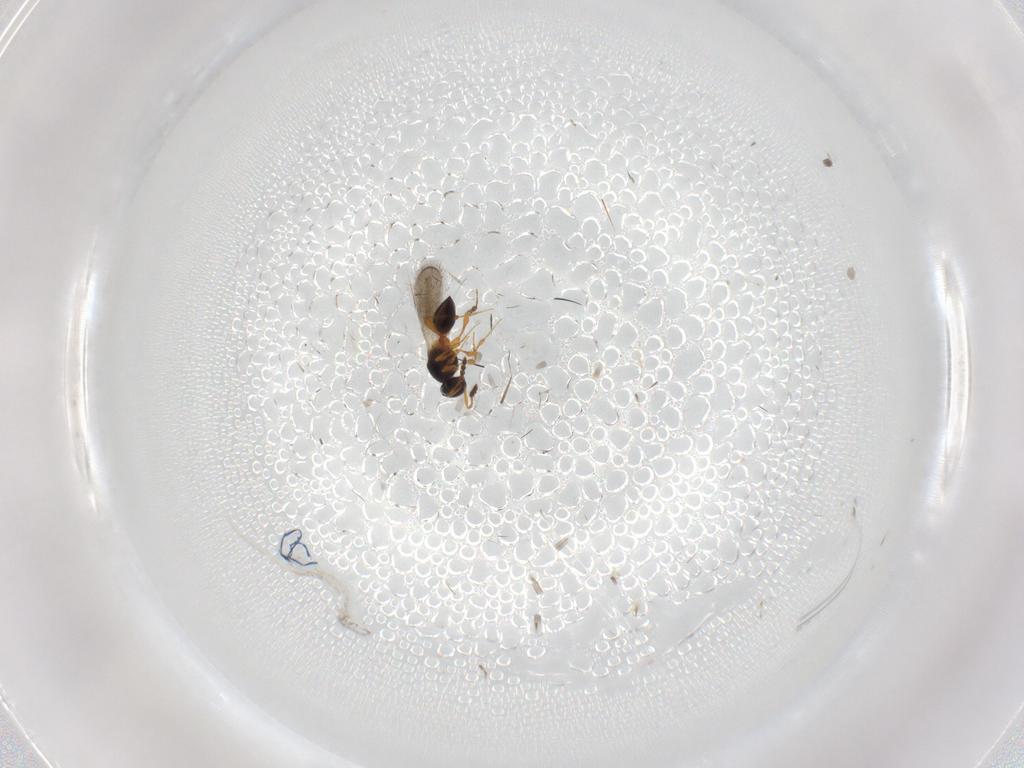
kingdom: Animalia
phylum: Arthropoda
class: Insecta
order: Hymenoptera
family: Platygastridae
